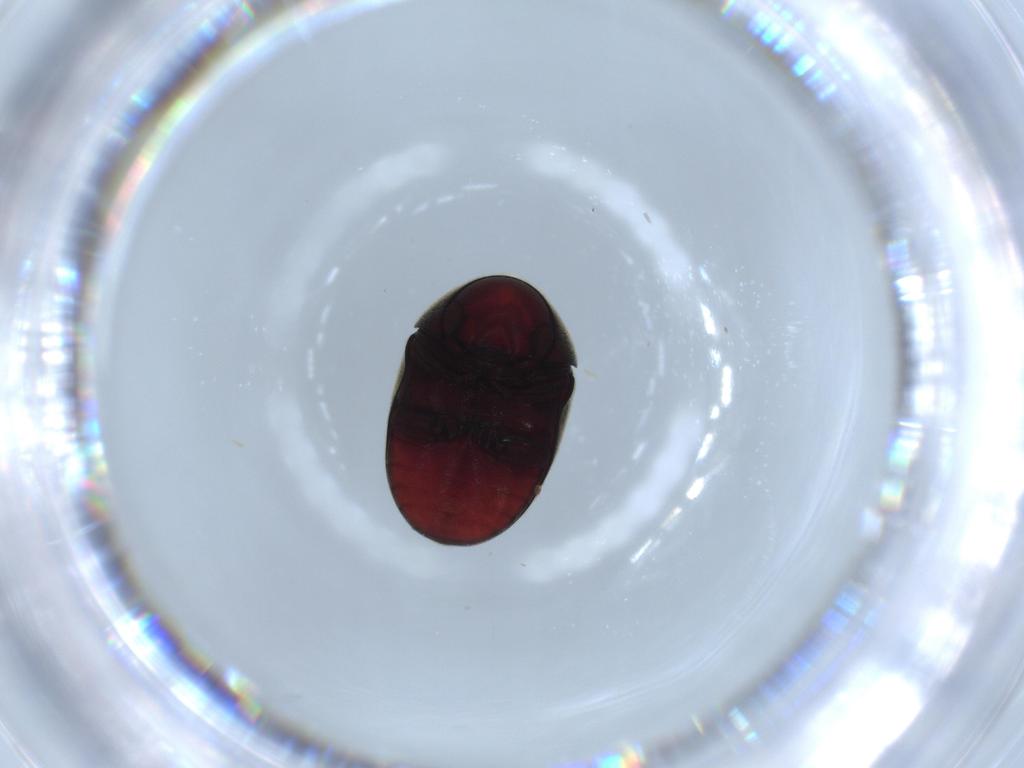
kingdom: Animalia
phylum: Arthropoda
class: Insecta
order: Coleoptera
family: Ptinidae
